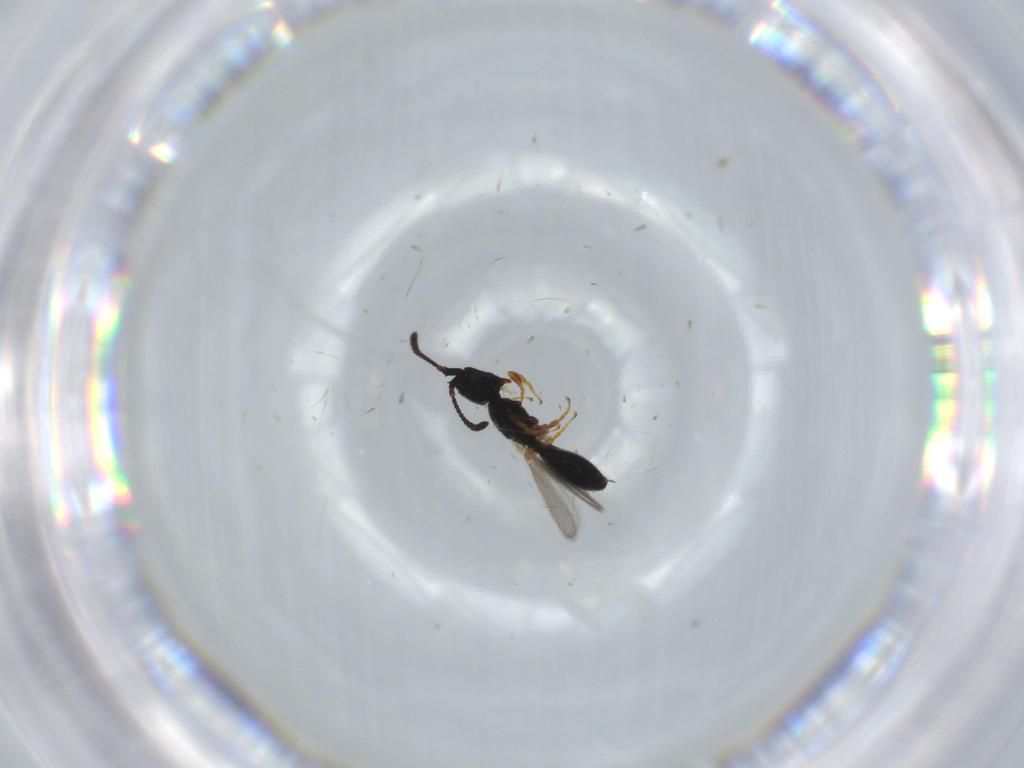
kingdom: Animalia
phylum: Arthropoda
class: Insecta
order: Hymenoptera
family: Diapriidae
